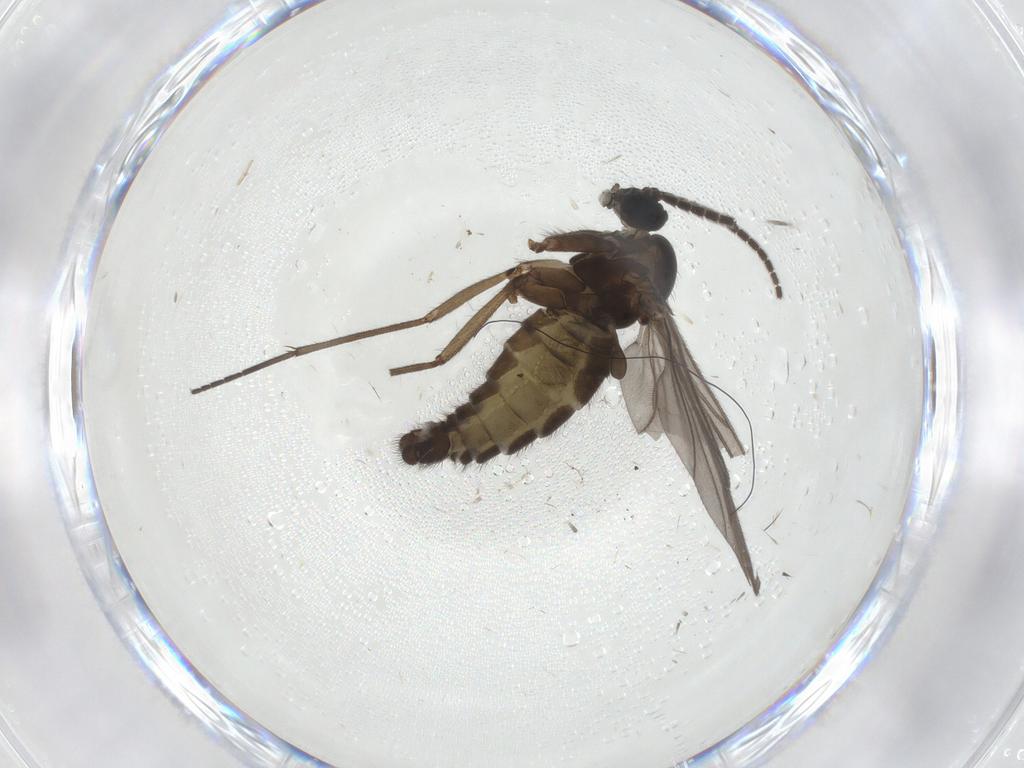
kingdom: Animalia
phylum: Arthropoda
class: Insecta
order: Diptera
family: Sciaridae
